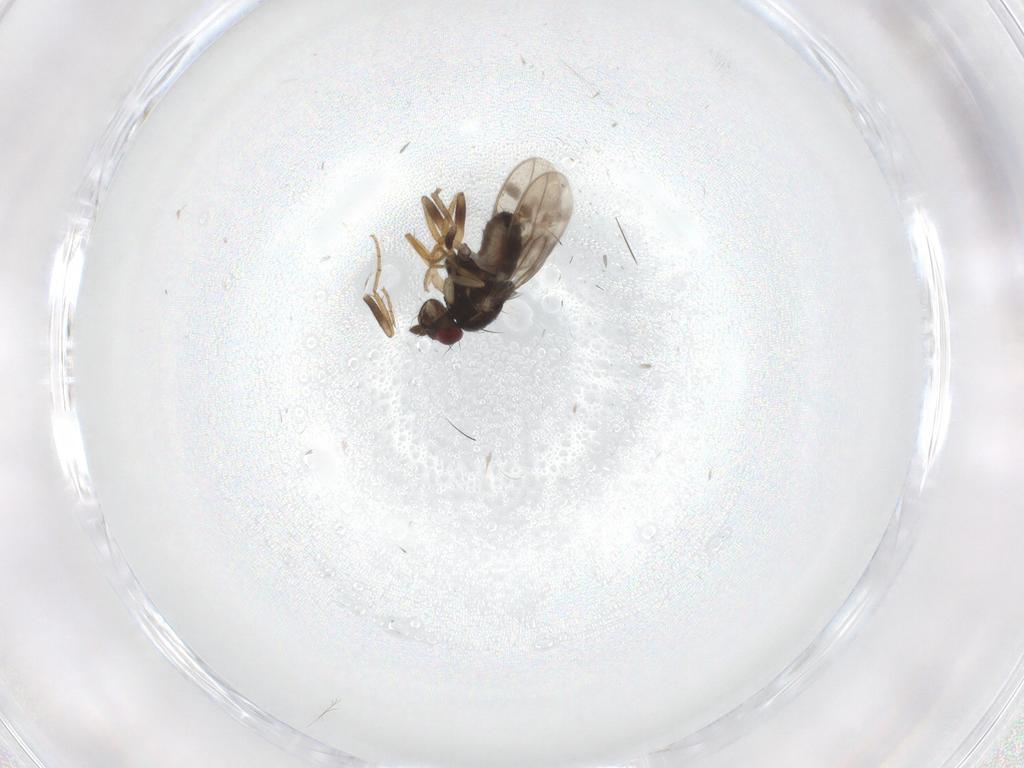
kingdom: Animalia
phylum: Arthropoda
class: Insecta
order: Diptera
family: Sphaeroceridae
